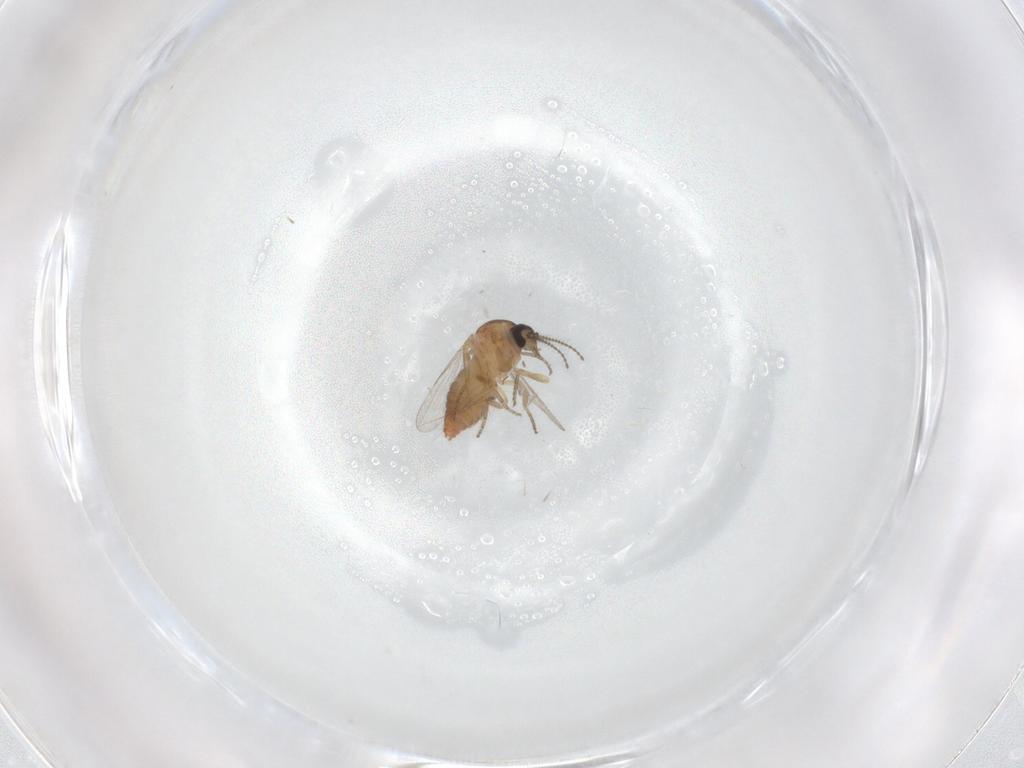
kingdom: Animalia
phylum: Arthropoda
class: Insecta
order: Diptera
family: Ceratopogonidae
